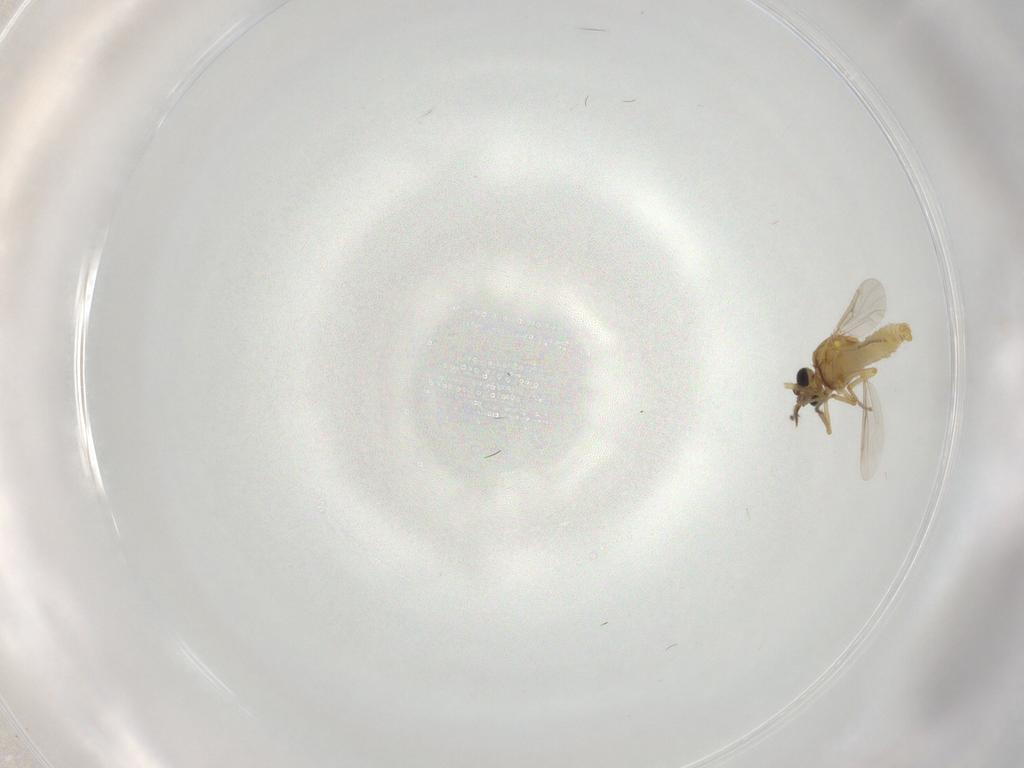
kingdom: Animalia
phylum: Arthropoda
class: Insecta
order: Diptera
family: Ceratopogonidae
